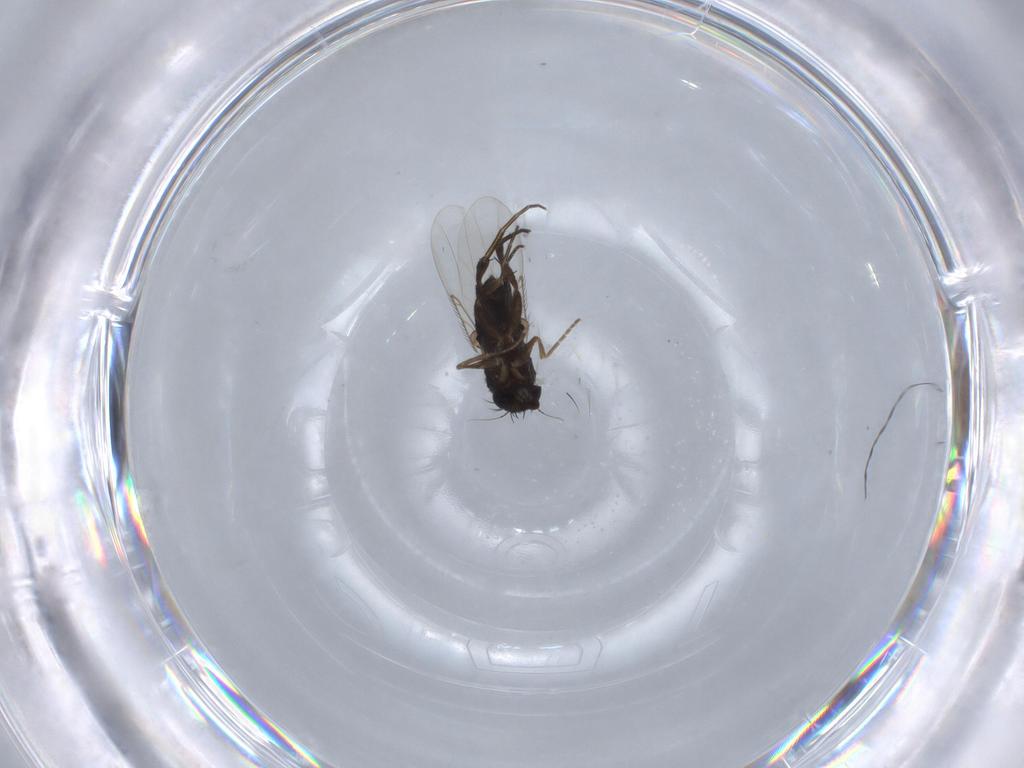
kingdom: Animalia
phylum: Arthropoda
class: Insecta
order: Diptera
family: Phoridae
